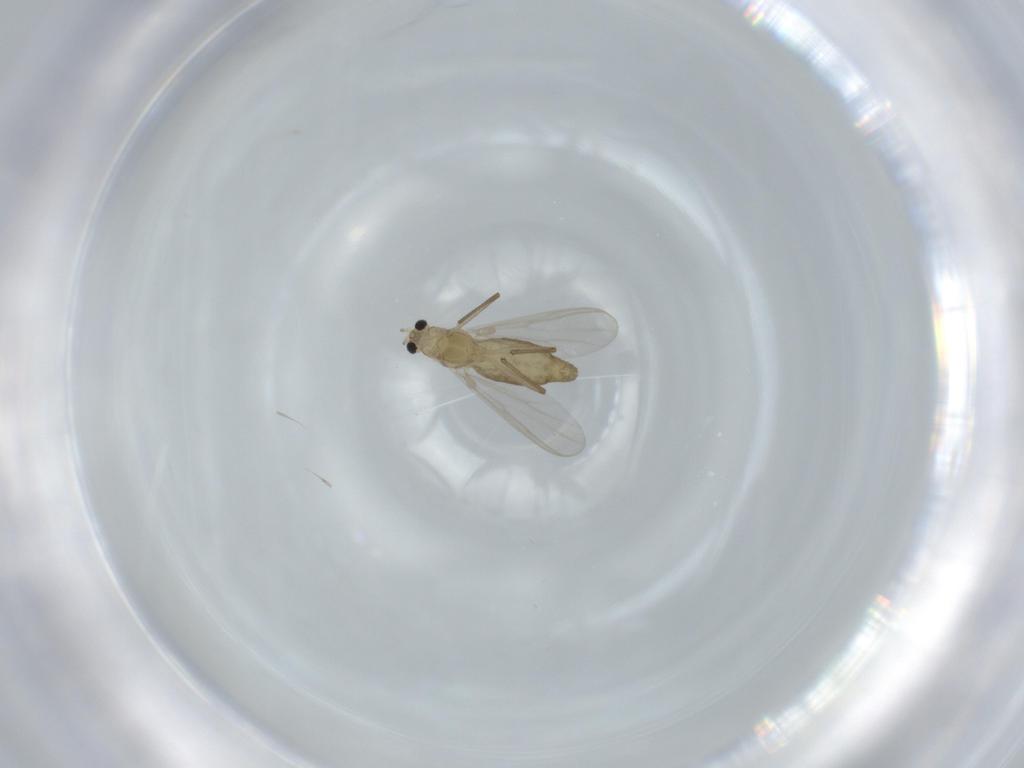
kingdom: Animalia
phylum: Arthropoda
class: Insecta
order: Diptera
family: Chironomidae
